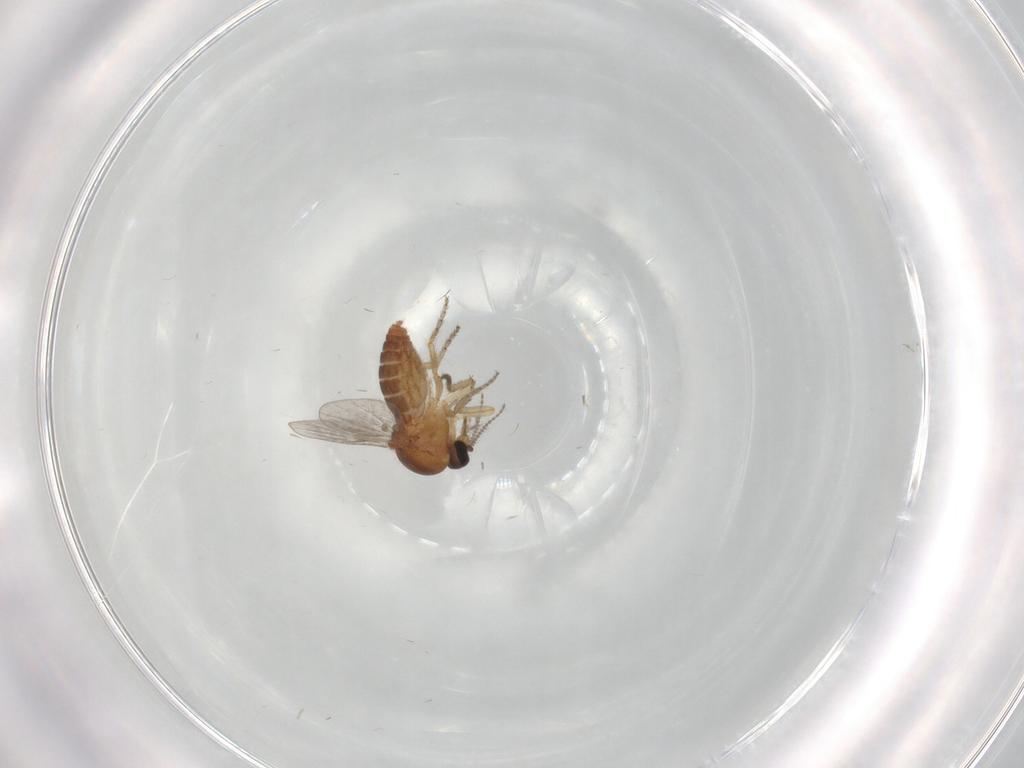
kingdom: Animalia
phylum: Arthropoda
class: Insecta
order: Diptera
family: Ceratopogonidae
